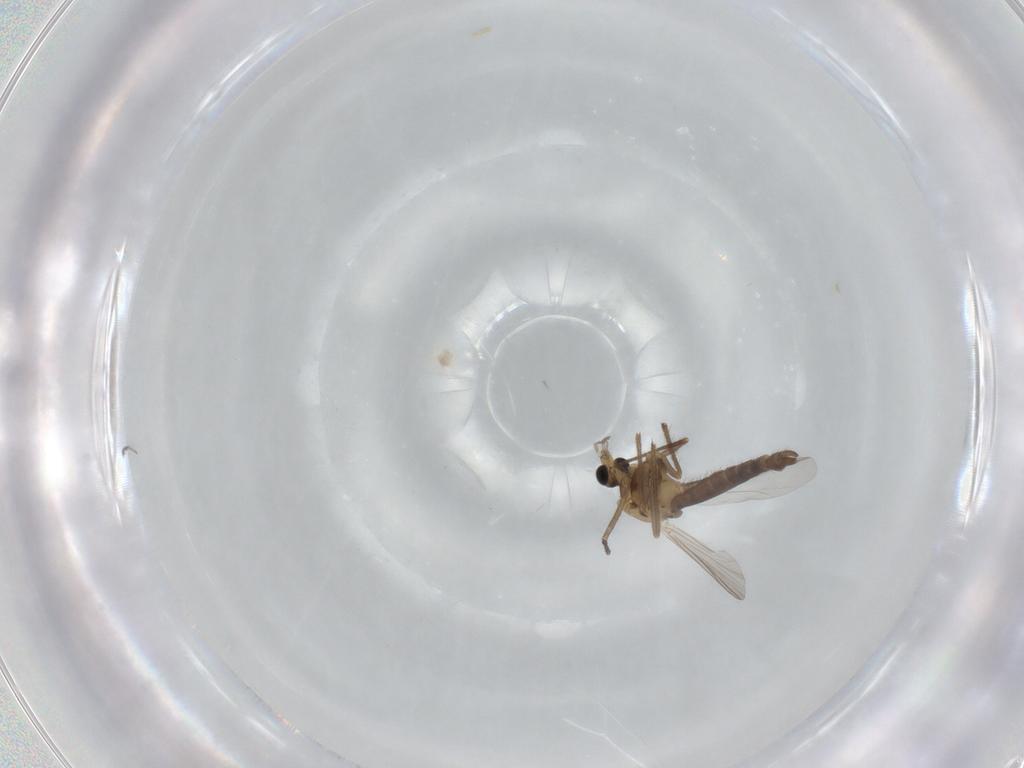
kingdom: Animalia
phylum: Arthropoda
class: Insecta
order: Diptera
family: Chironomidae
